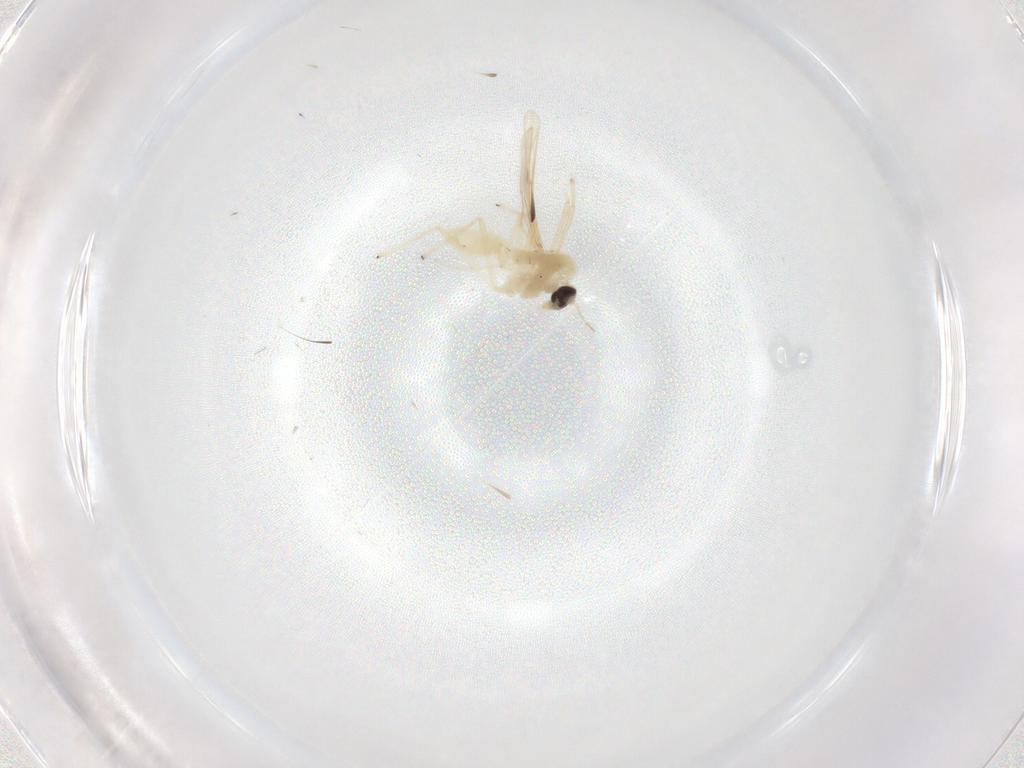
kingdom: Animalia
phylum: Arthropoda
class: Insecta
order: Diptera
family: Chironomidae
